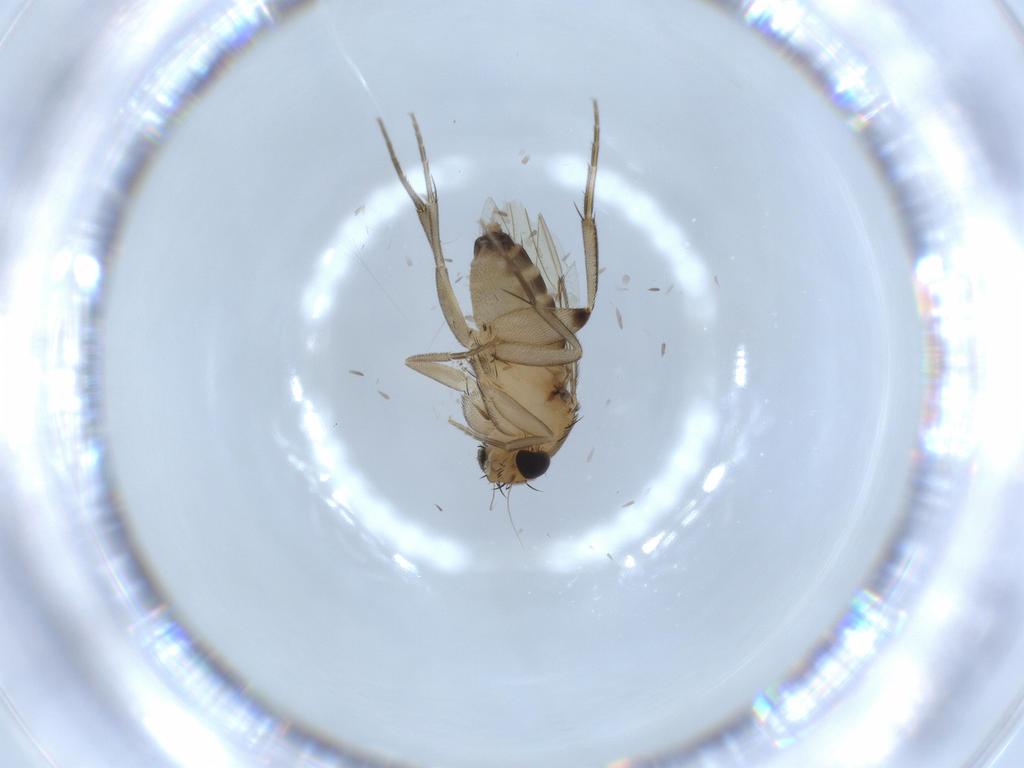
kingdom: Animalia
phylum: Arthropoda
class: Insecta
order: Diptera
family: Phoridae
